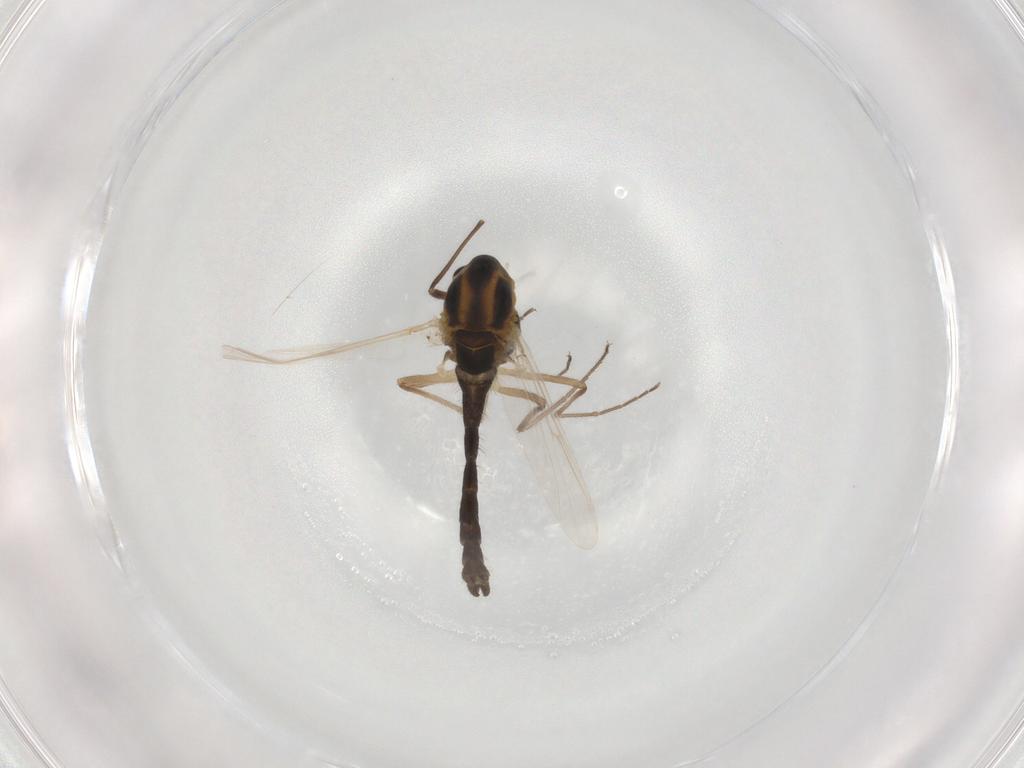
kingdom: Animalia
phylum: Arthropoda
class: Insecta
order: Diptera
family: Chironomidae
